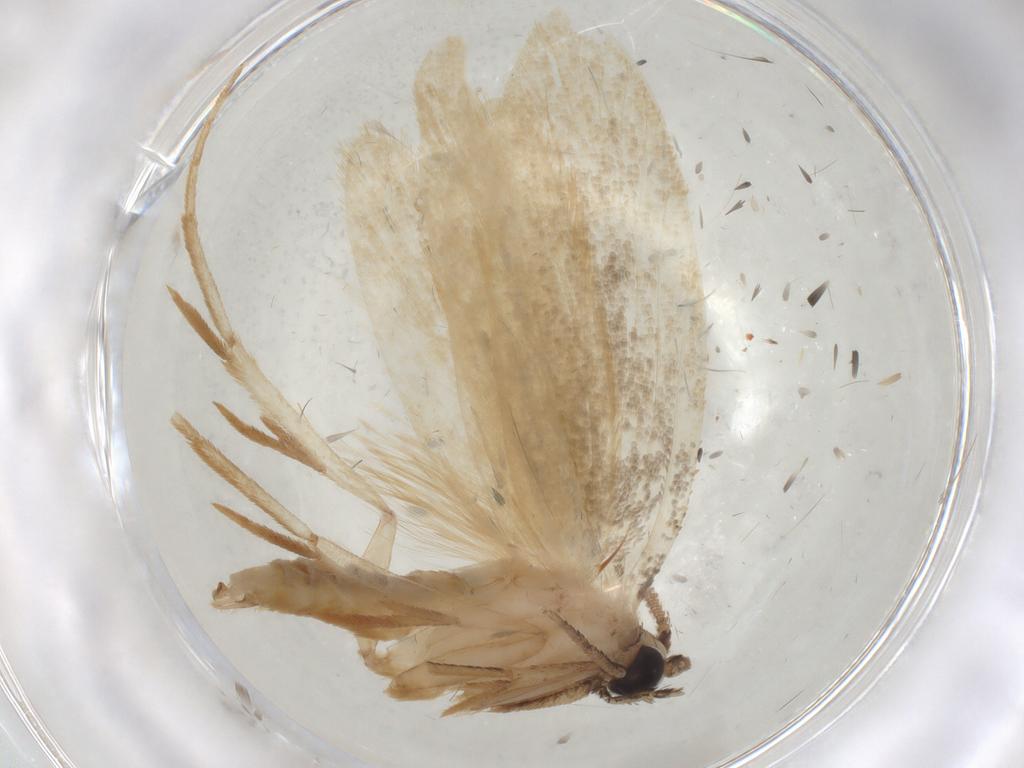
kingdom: Animalia
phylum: Arthropoda
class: Insecta
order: Lepidoptera
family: Tineidae
